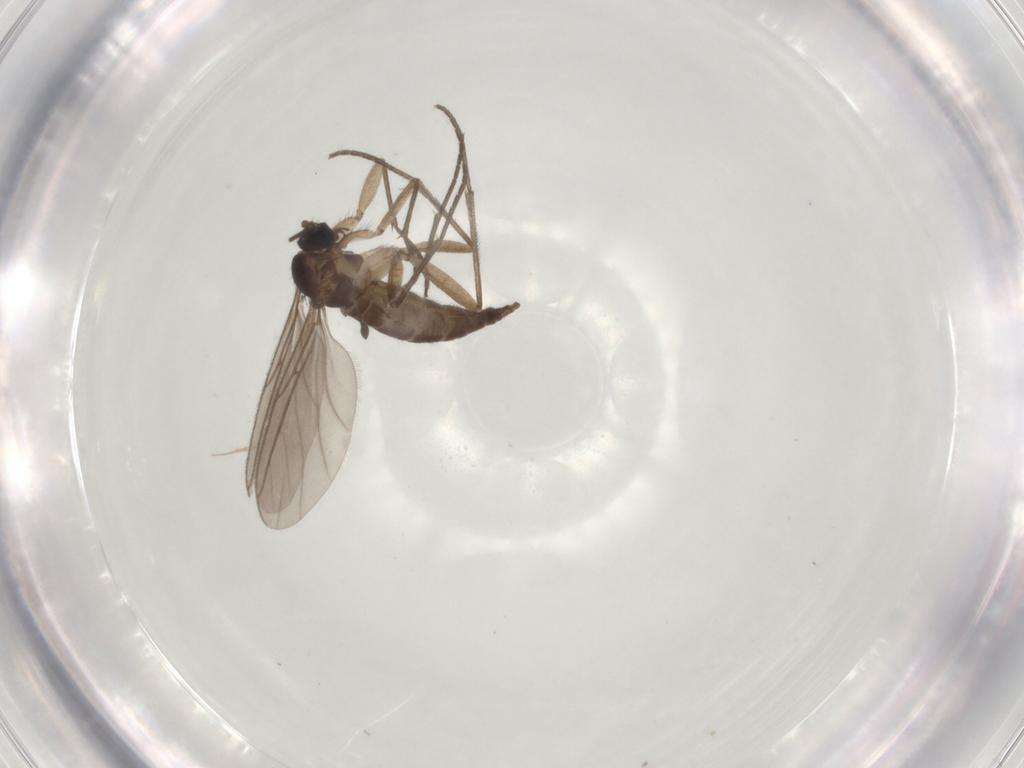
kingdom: Animalia
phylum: Arthropoda
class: Insecta
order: Diptera
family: Sciaridae
